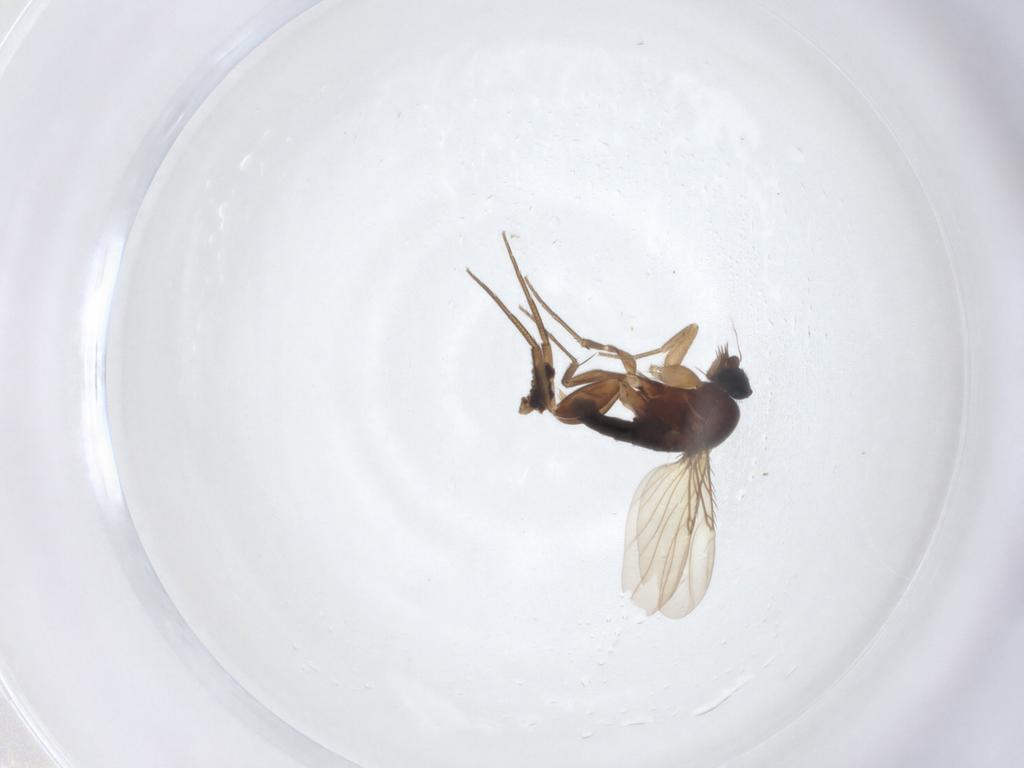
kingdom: Animalia
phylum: Arthropoda
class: Insecta
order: Diptera
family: Phoridae
